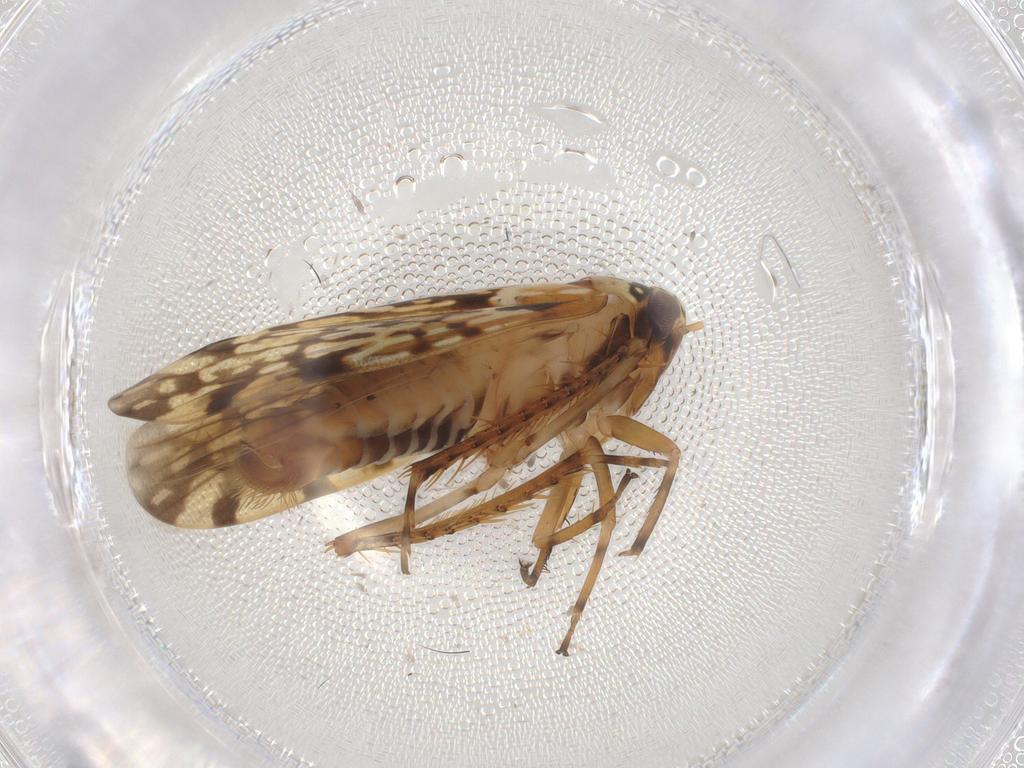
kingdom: Animalia
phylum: Arthropoda
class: Insecta
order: Hemiptera
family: Cicadellidae
